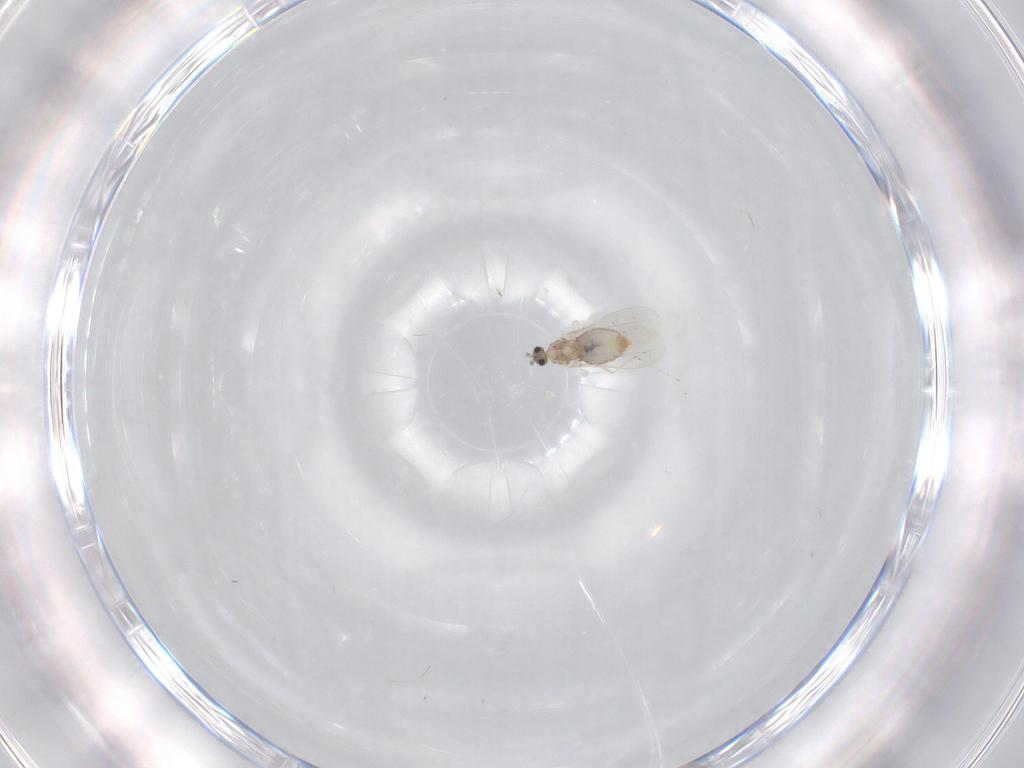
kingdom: Animalia
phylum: Arthropoda
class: Insecta
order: Diptera
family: Cecidomyiidae
